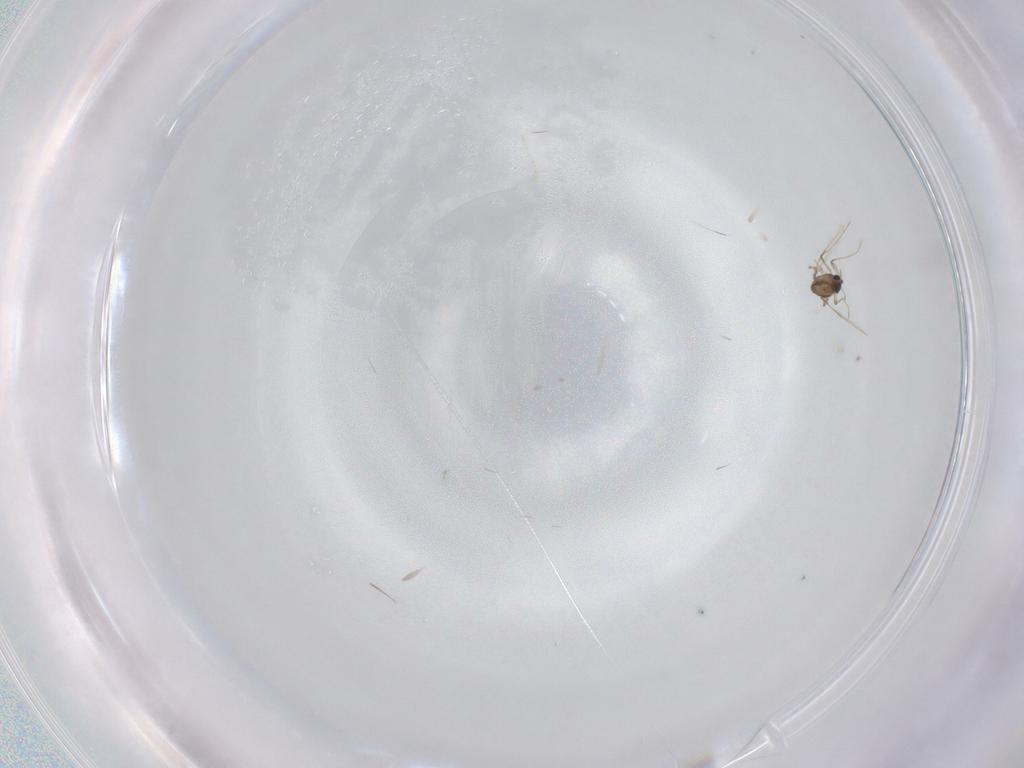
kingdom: Animalia
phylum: Arthropoda
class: Insecta
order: Diptera
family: Chironomidae
